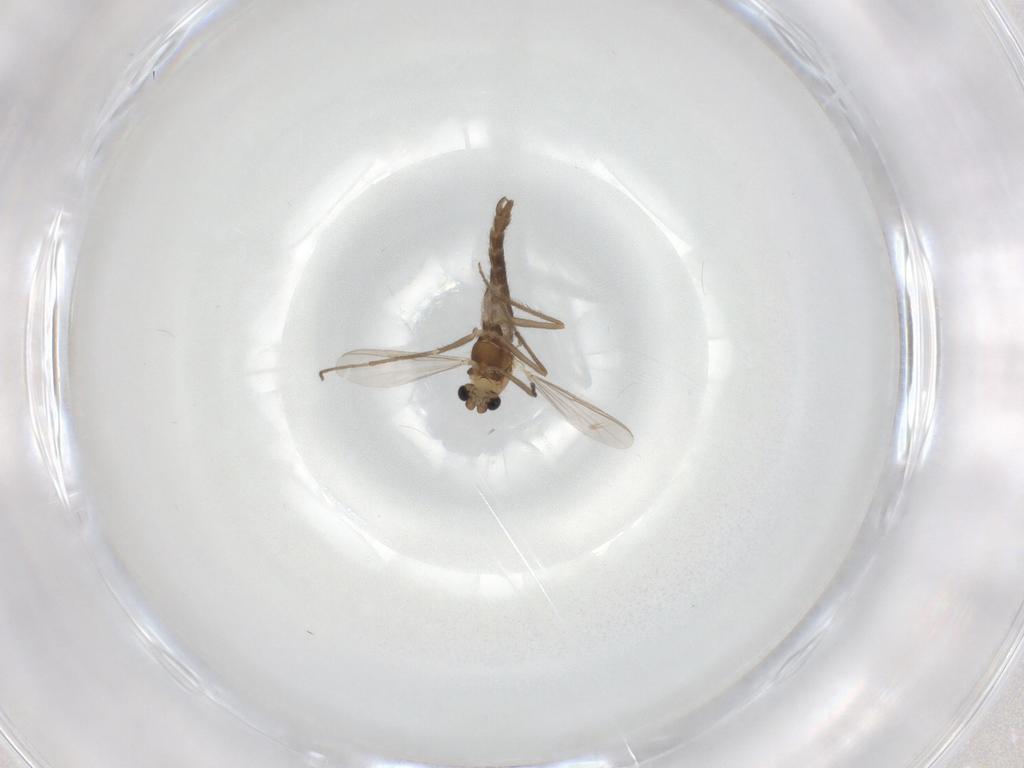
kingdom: Animalia
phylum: Arthropoda
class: Insecta
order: Diptera
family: Chironomidae
